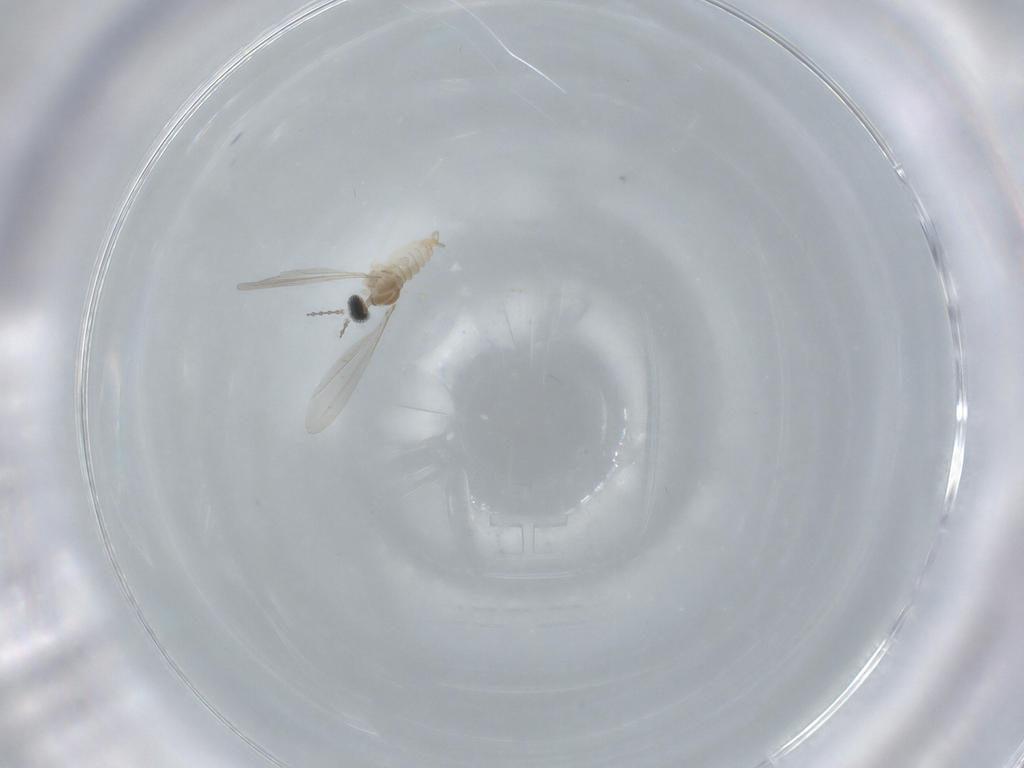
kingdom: Animalia
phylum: Arthropoda
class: Insecta
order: Diptera
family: Cecidomyiidae
